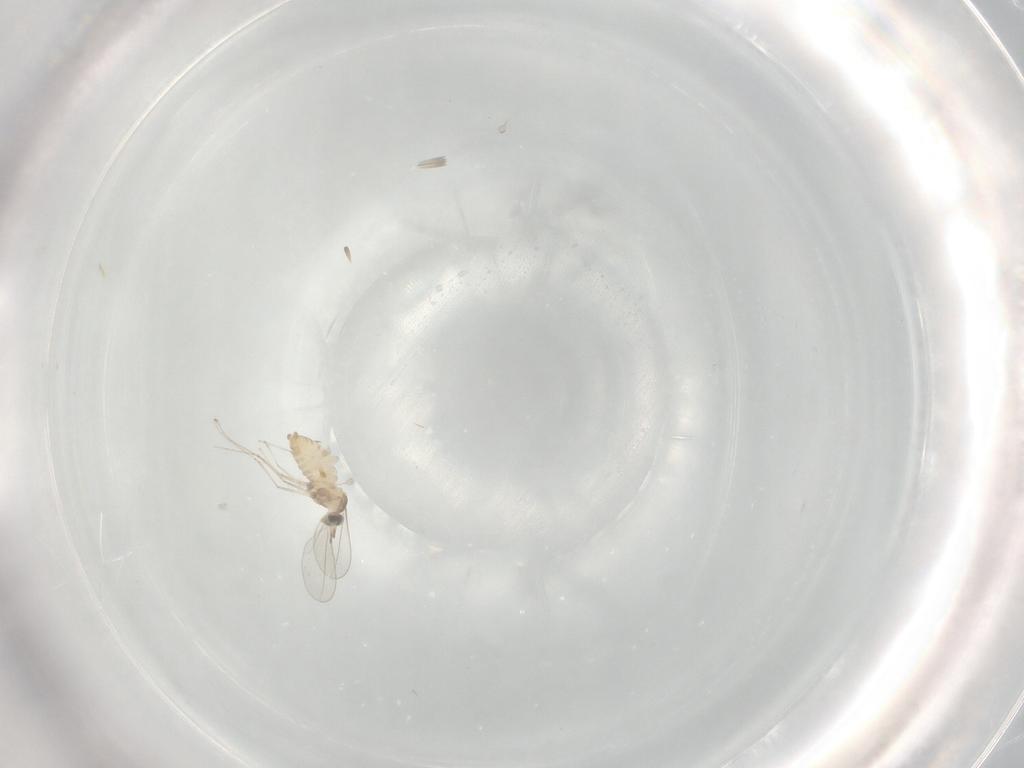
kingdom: Animalia
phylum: Arthropoda
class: Insecta
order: Diptera
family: Cecidomyiidae
